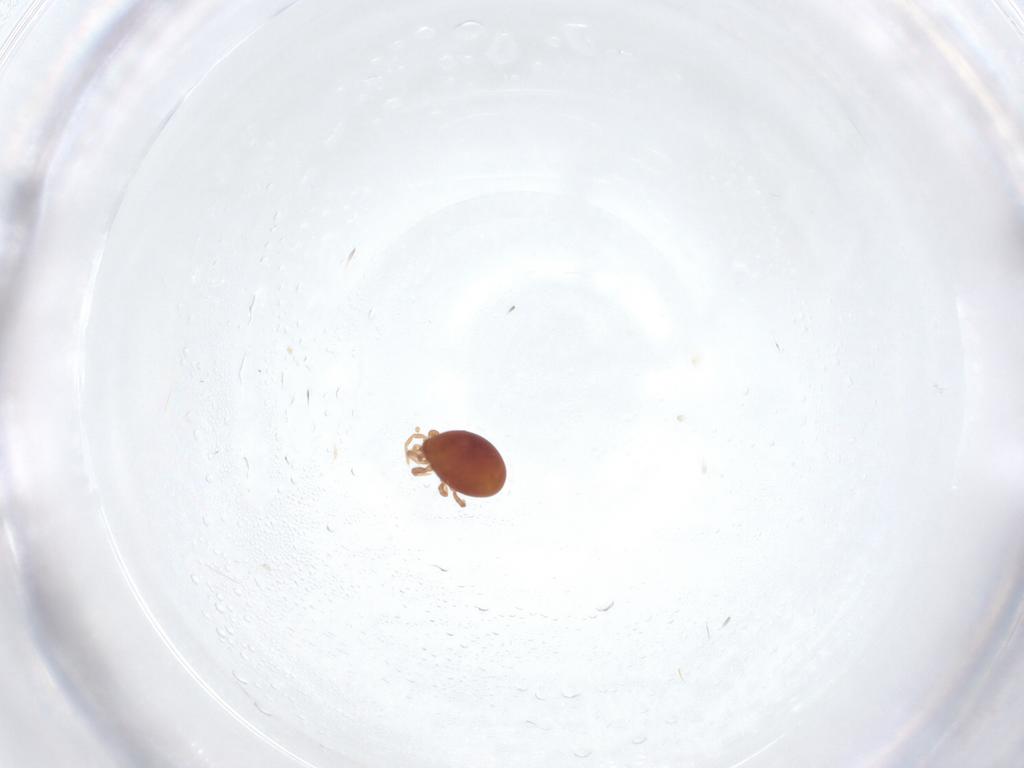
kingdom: Animalia
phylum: Arthropoda
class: Arachnida
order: Mesostigmata
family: Parasitidae
